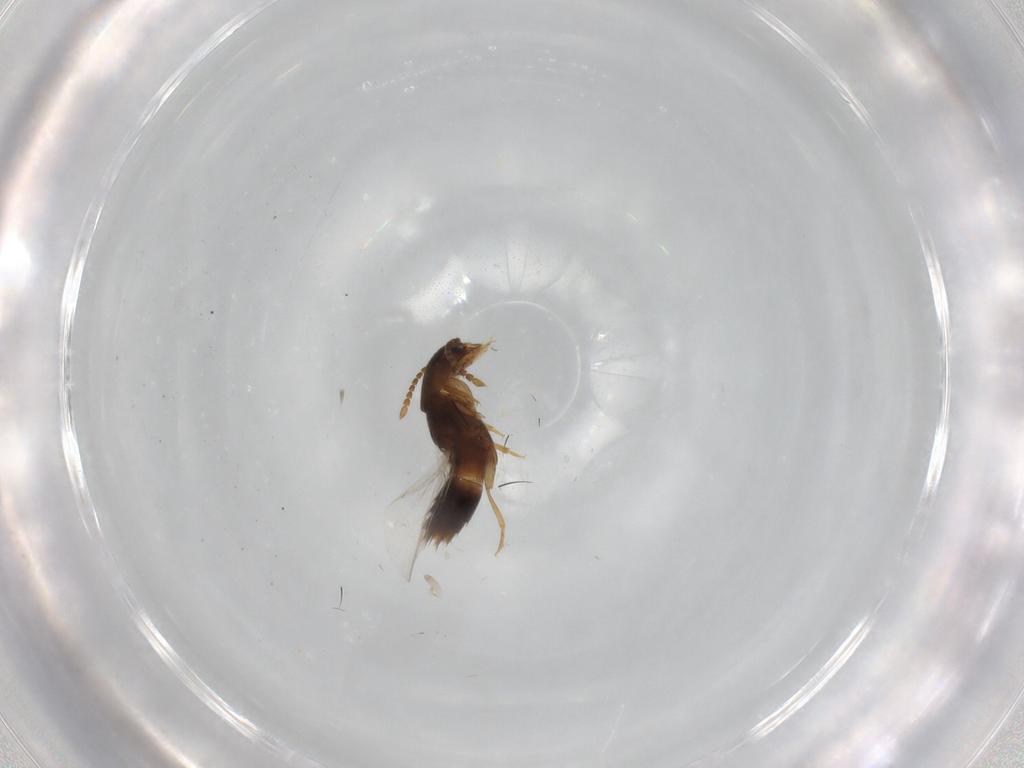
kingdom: Animalia
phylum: Arthropoda
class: Insecta
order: Coleoptera
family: Staphylinidae
